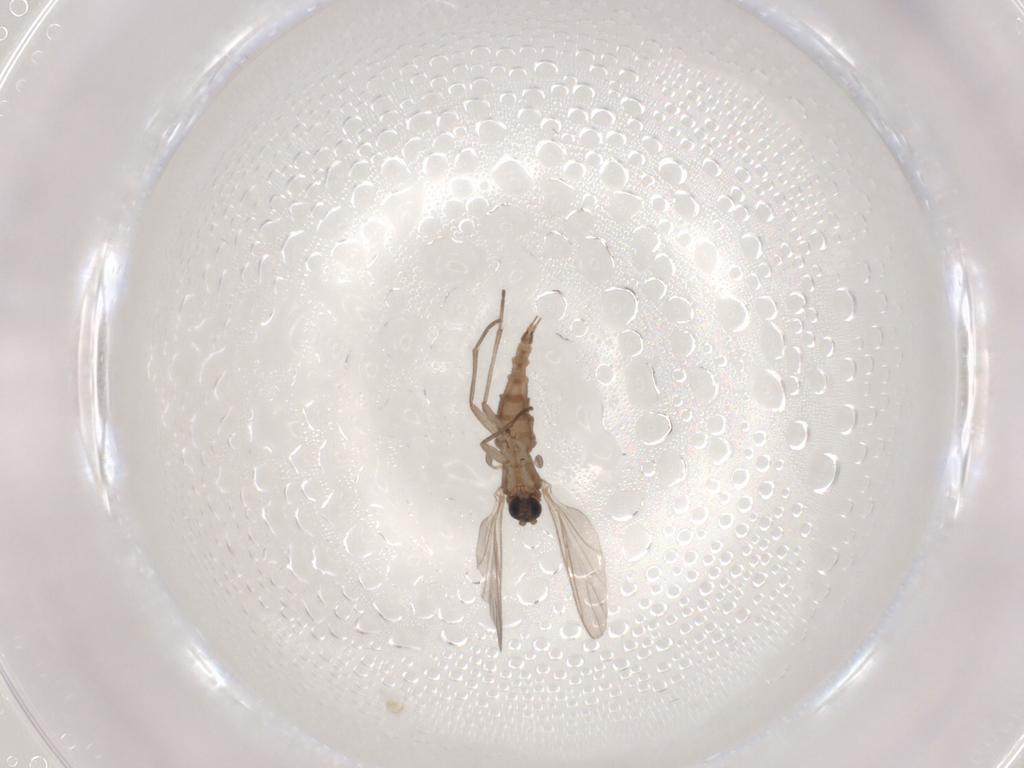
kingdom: Animalia
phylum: Arthropoda
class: Insecta
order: Diptera
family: Sciaridae
